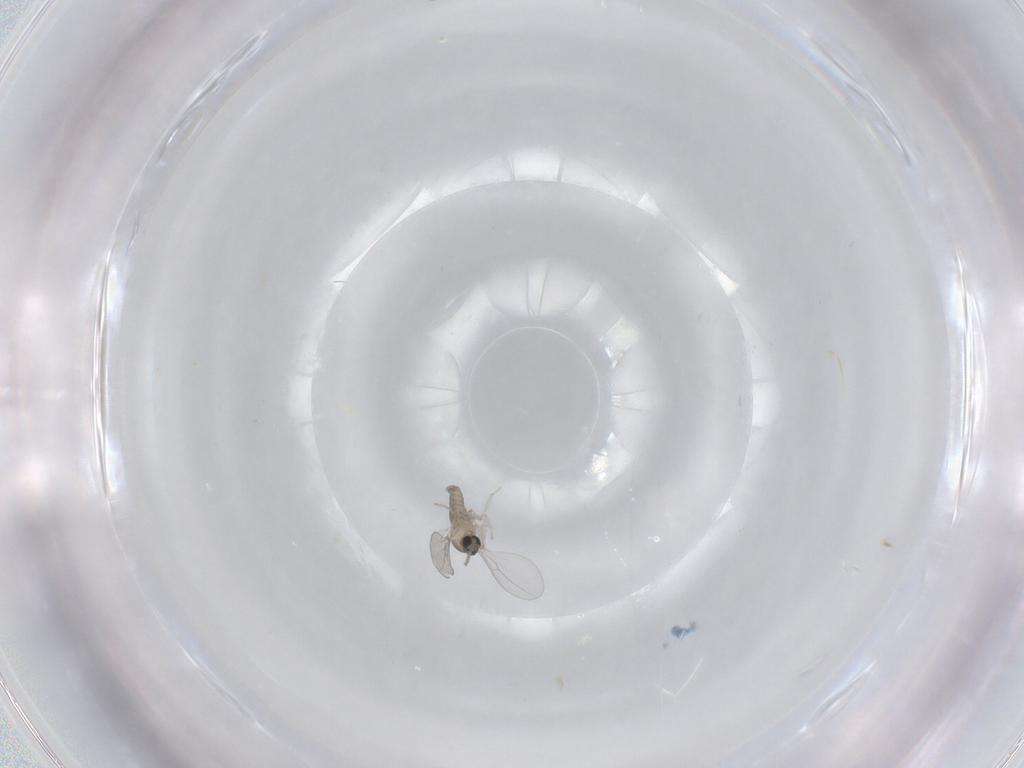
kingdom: Animalia
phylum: Arthropoda
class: Insecta
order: Diptera
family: Cecidomyiidae
